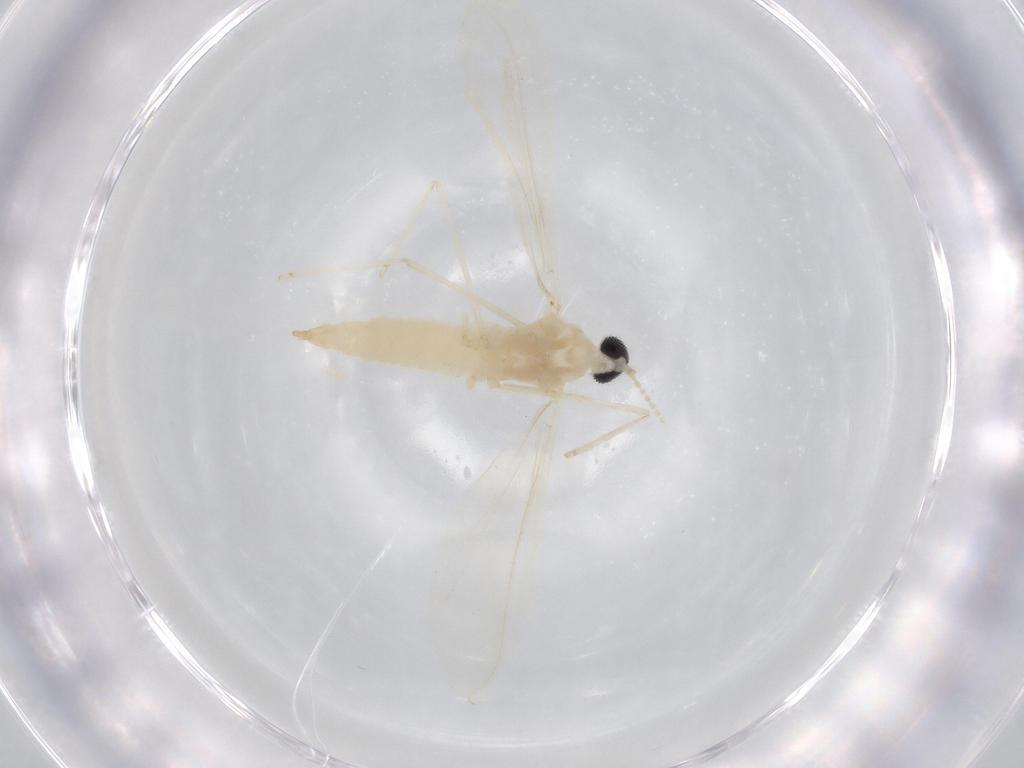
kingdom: Animalia
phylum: Arthropoda
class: Insecta
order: Diptera
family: Cecidomyiidae
